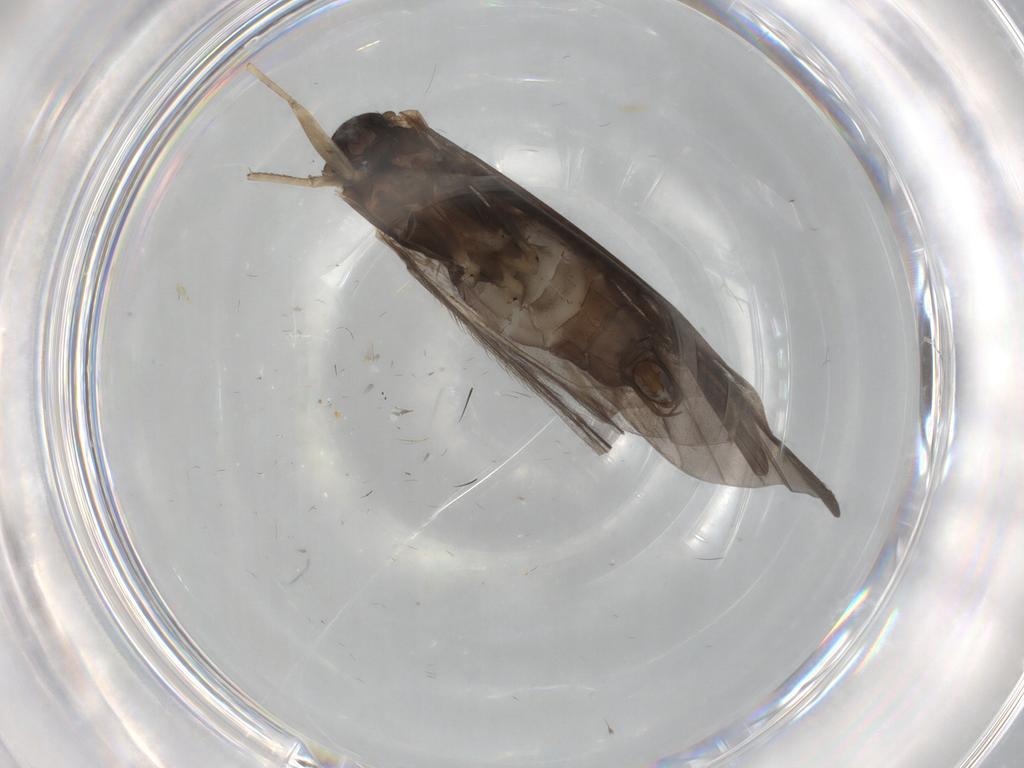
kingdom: Animalia
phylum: Arthropoda
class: Insecta
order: Trichoptera
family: Hydropsychidae
